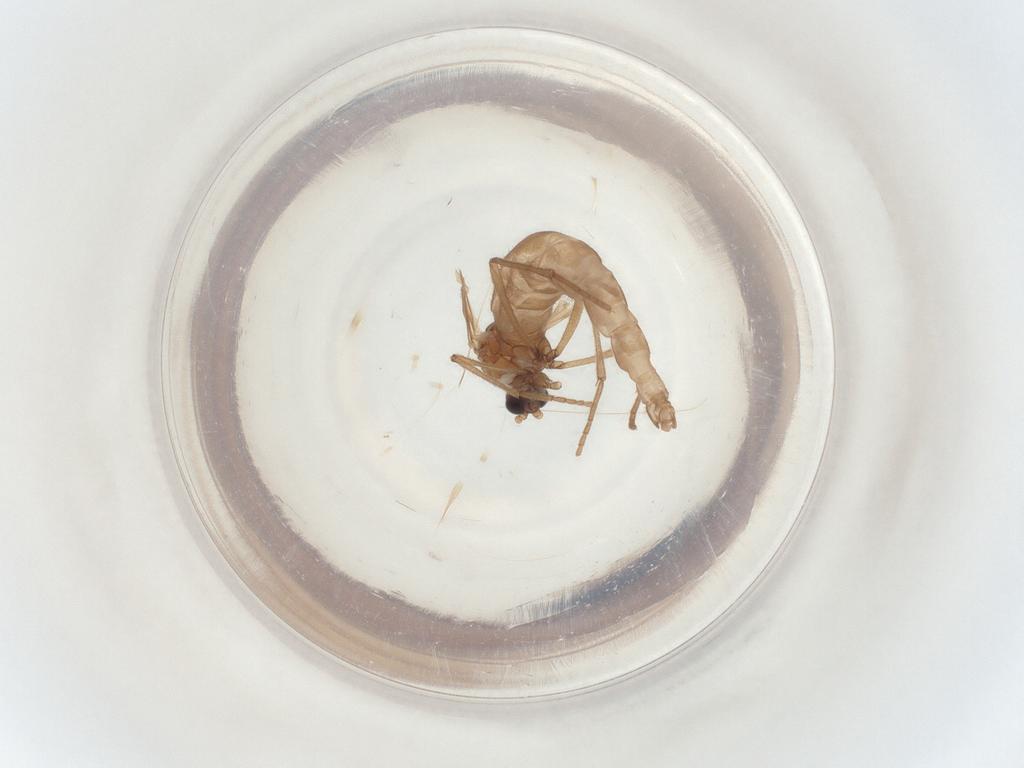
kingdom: Animalia
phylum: Arthropoda
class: Insecta
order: Diptera
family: Sciaridae
